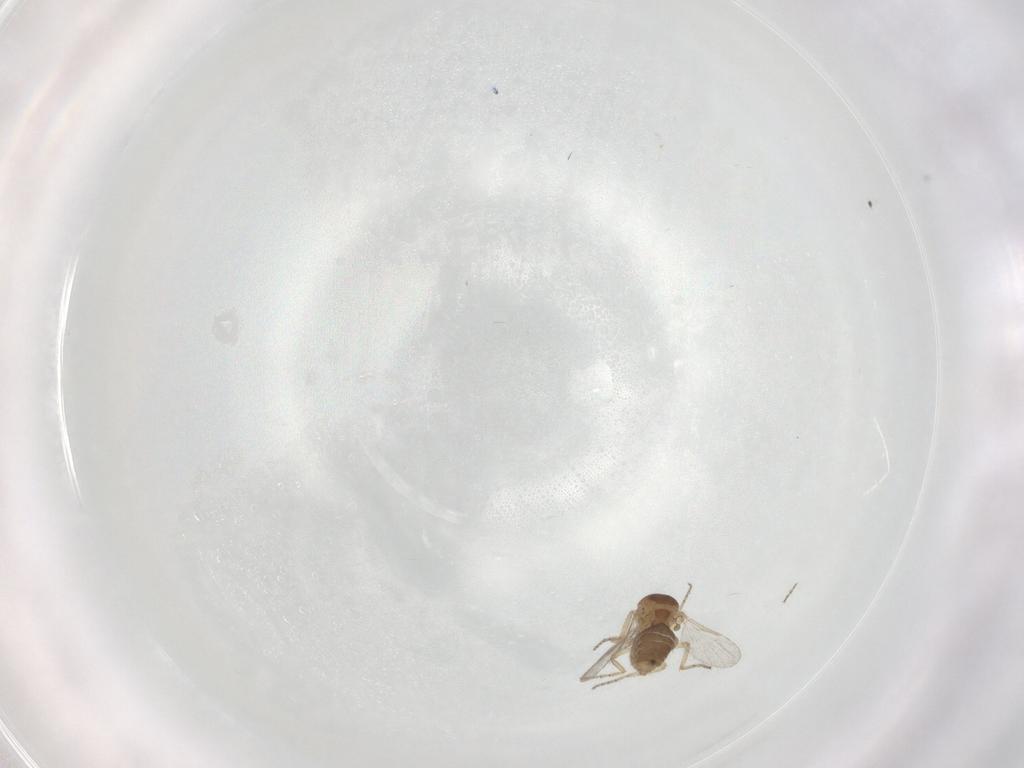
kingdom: Animalia
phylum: Arthropoda
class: Insecta
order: Diptera
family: Ceratopogonidae
